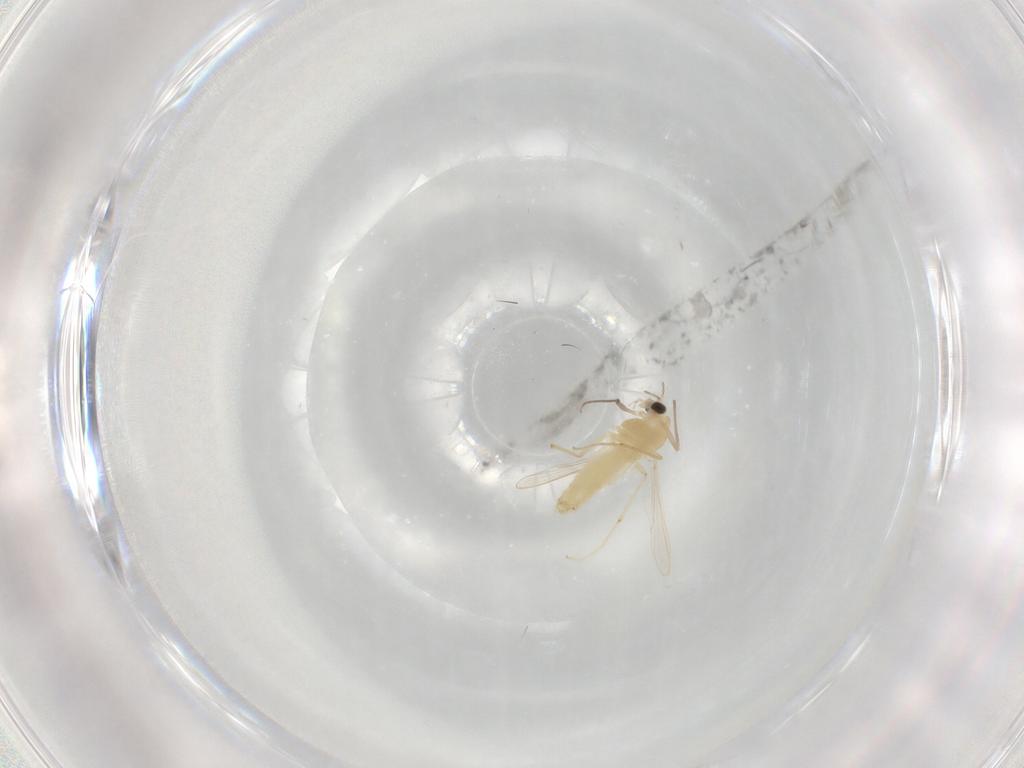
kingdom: Animalia
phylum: Arthropoda
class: Insecta
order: Diptera
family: Chironomidae
